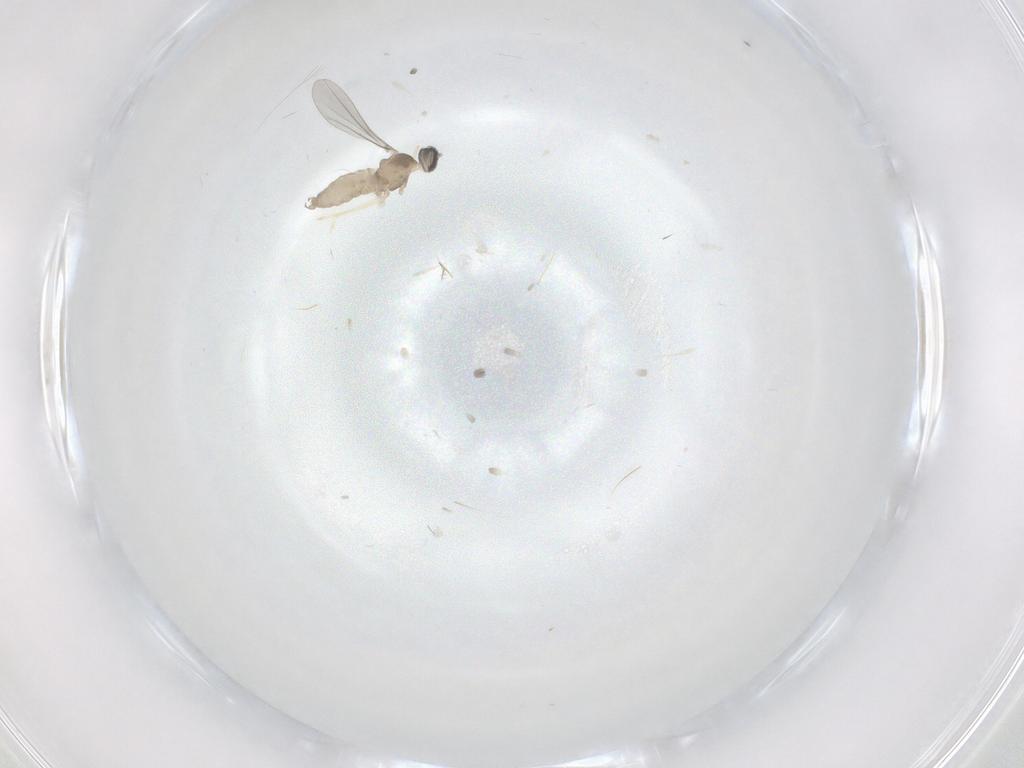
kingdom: Animalia
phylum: Arthropoda
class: Insecta
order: Diptera
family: Cecidomyiidae
